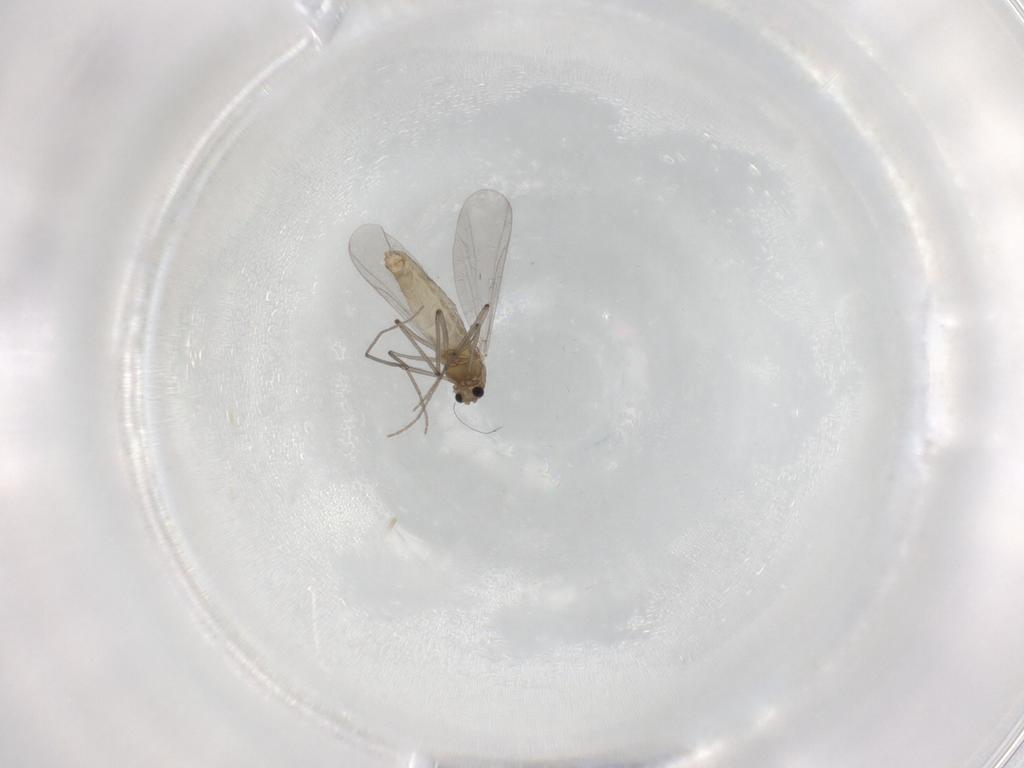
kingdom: Animalia
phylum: Arthropoda
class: Insecta
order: Diptera
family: Chironomidae
